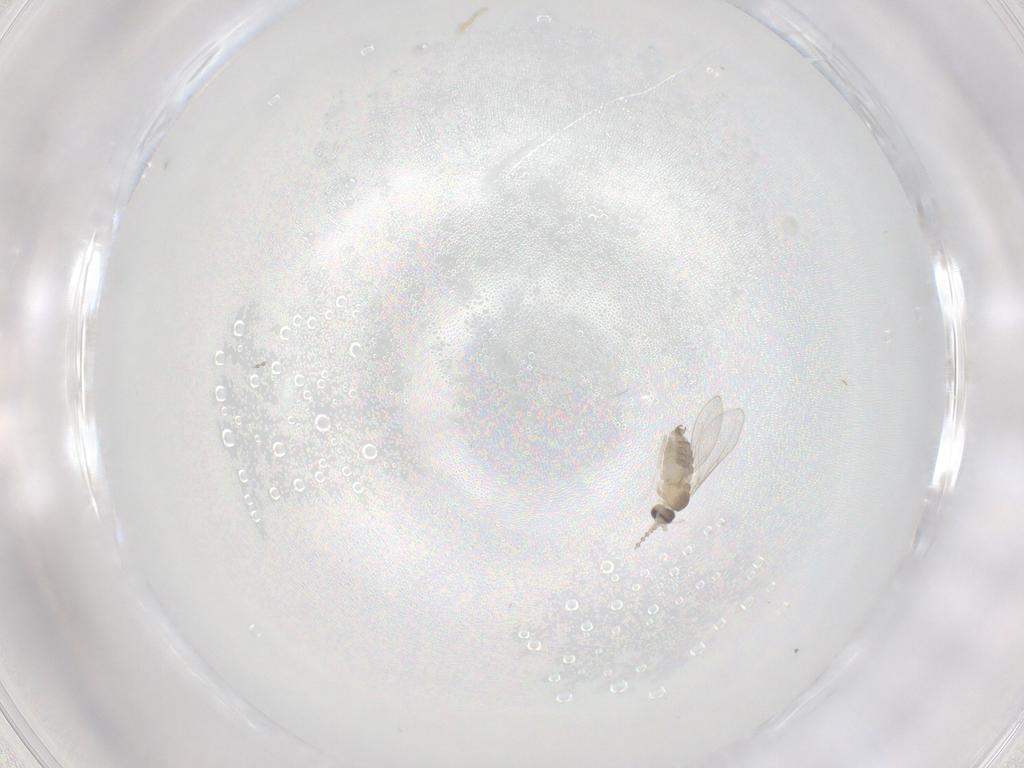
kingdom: Animalia
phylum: Arthropoda
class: Insecta
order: Diptera
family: Cecidomyiidae
